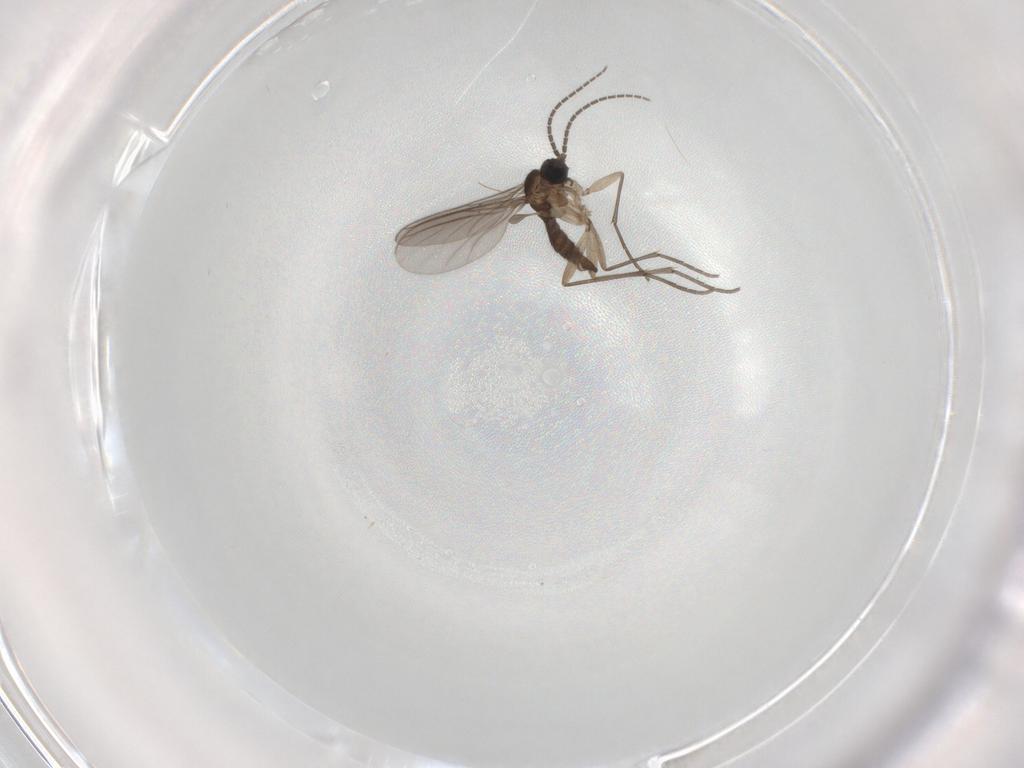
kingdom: Animalia
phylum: Arthropoda
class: Insecta
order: Diptera
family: Sciaridae
